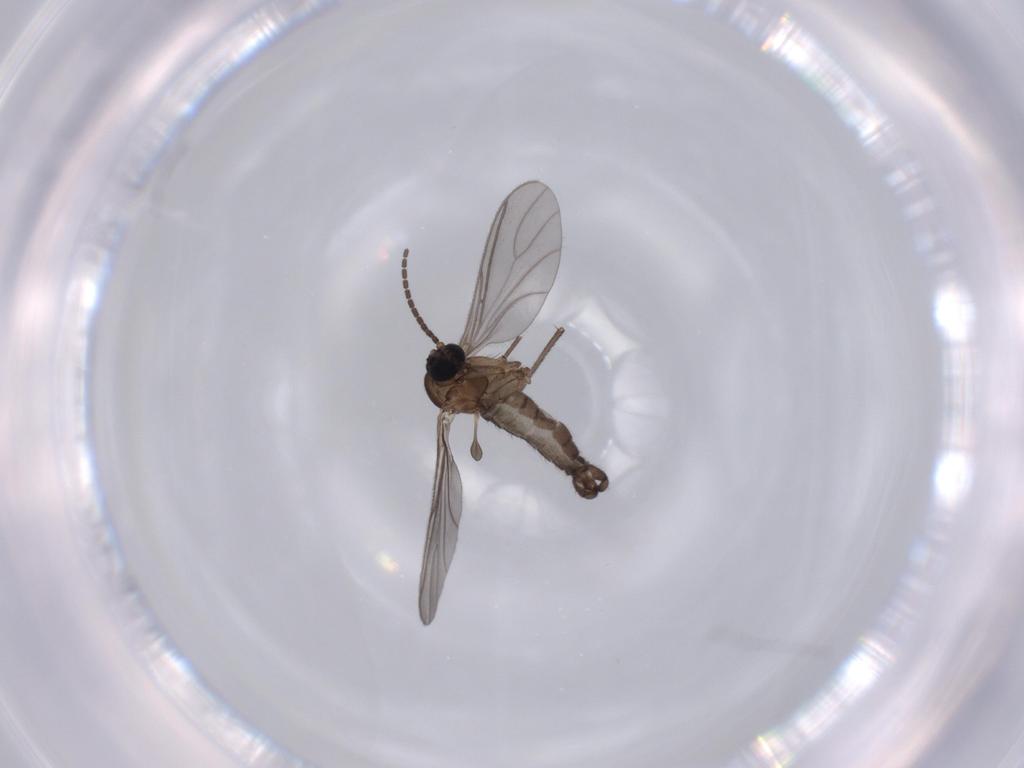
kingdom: Animalia
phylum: Arthropoda
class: Insecta
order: Diptera
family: Sciaridae
